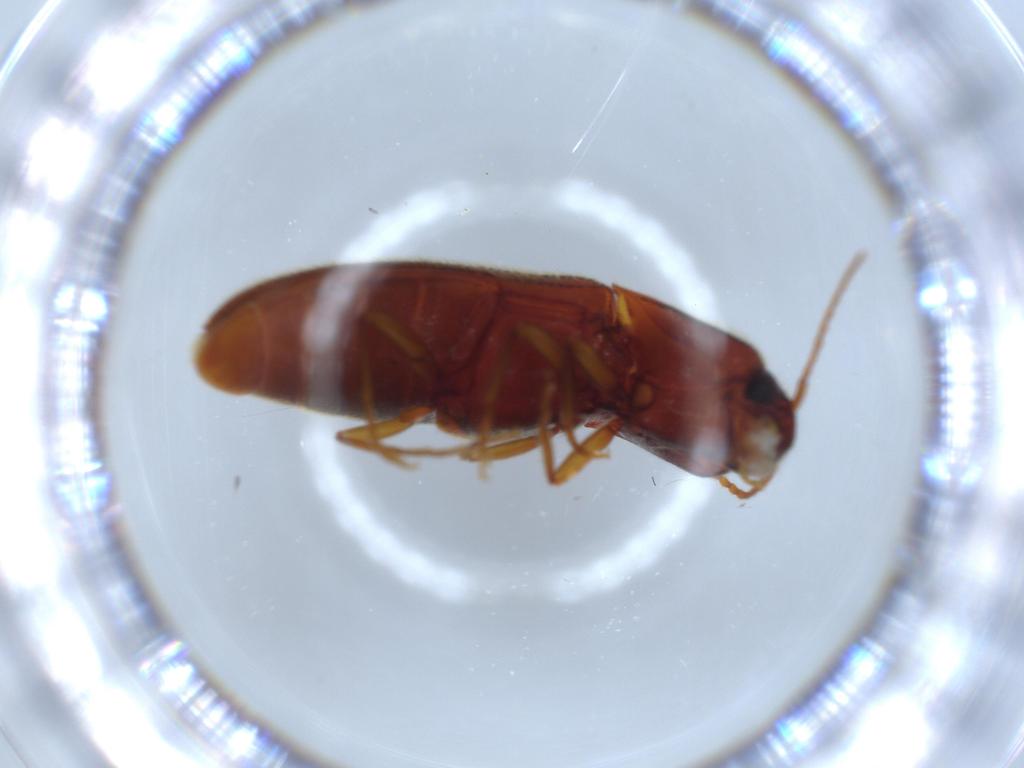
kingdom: Animalia
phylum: Arthropoda
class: Insecta
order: Coleoptera
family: Elateridae
